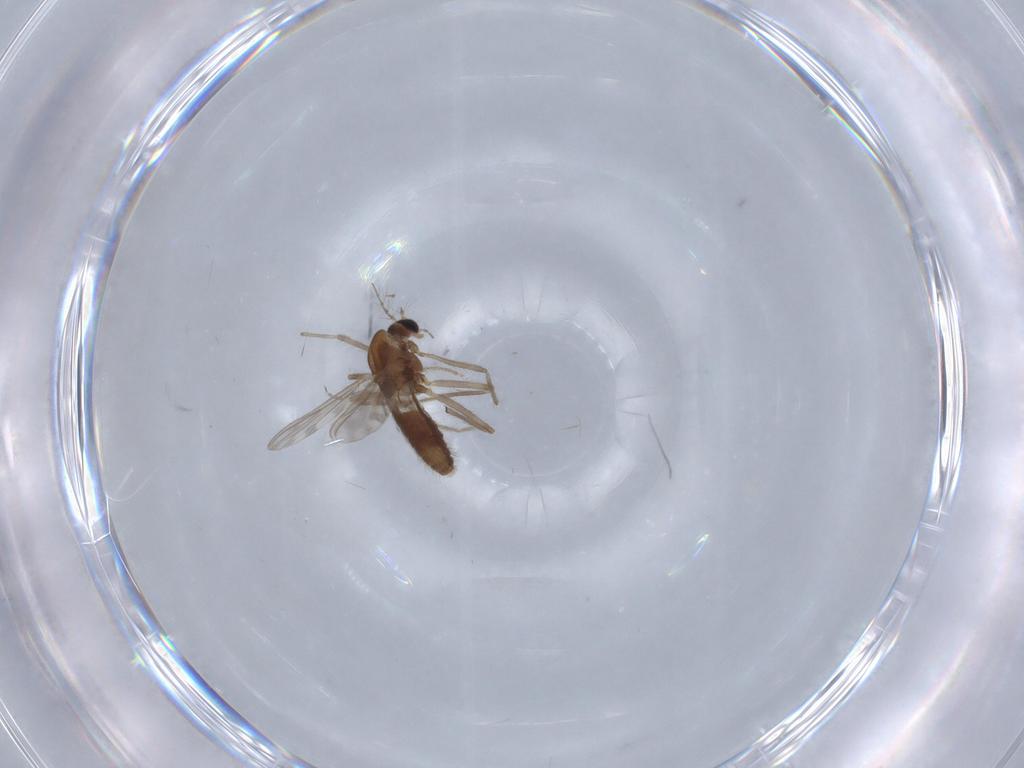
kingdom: Animalia
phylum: Arthropoda
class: Insecta
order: Diptera
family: Chironomidae
